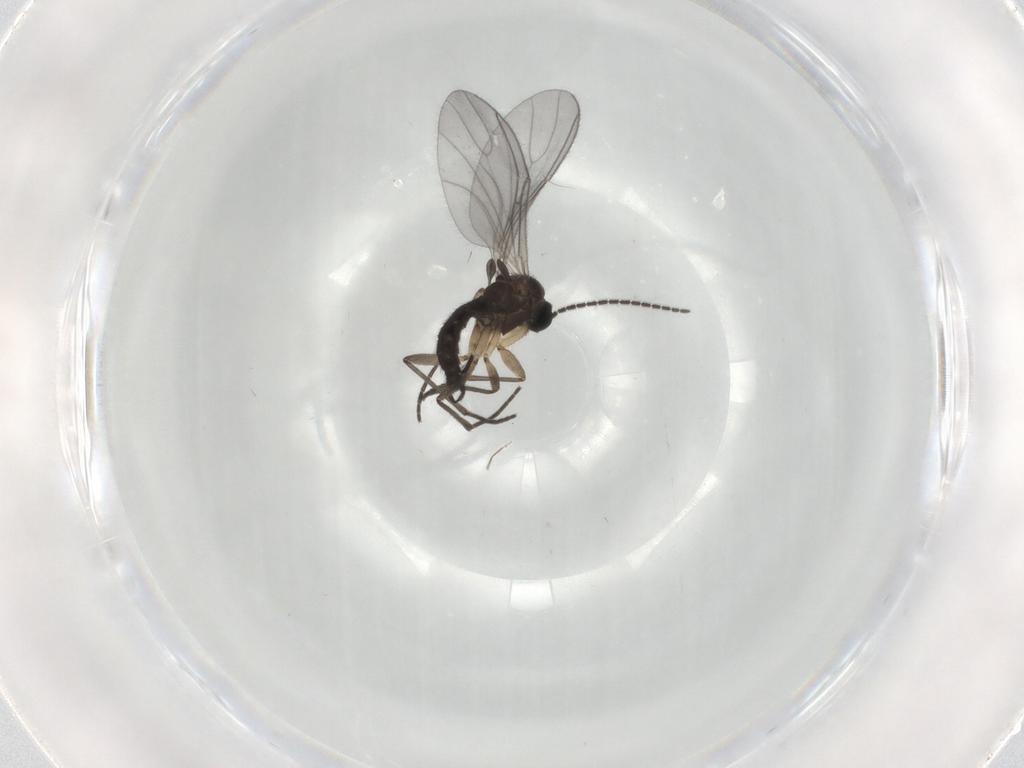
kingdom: Animalia
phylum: Arthropoda
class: Insecta
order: Diptera
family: Sciaridae
